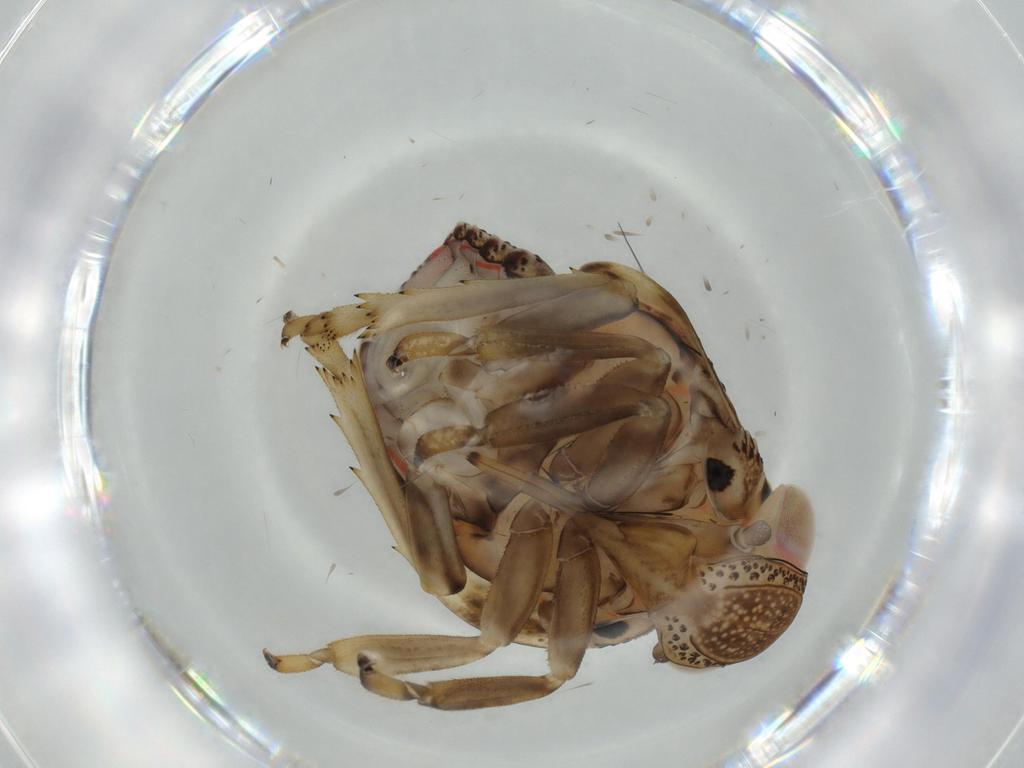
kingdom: Animalia
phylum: Arthropoda
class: Insecta
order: Hemiptera
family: Issidae
